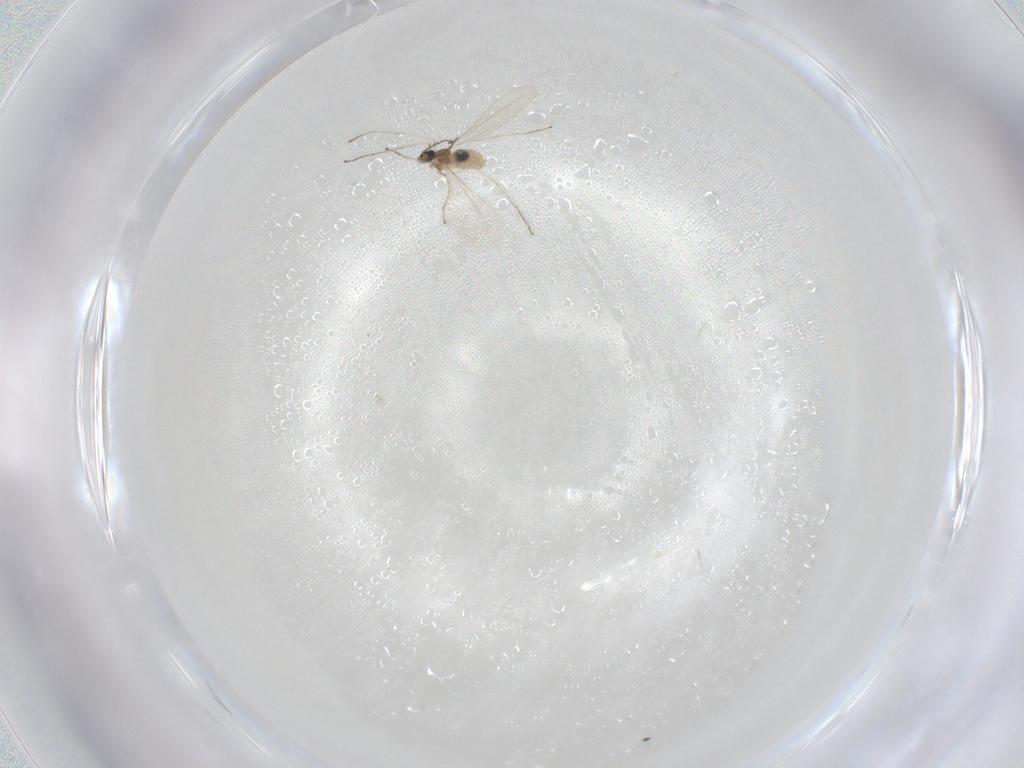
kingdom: Animalia
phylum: Arthropoda
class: Insecta
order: Diptera
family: Cecidomyiidae
